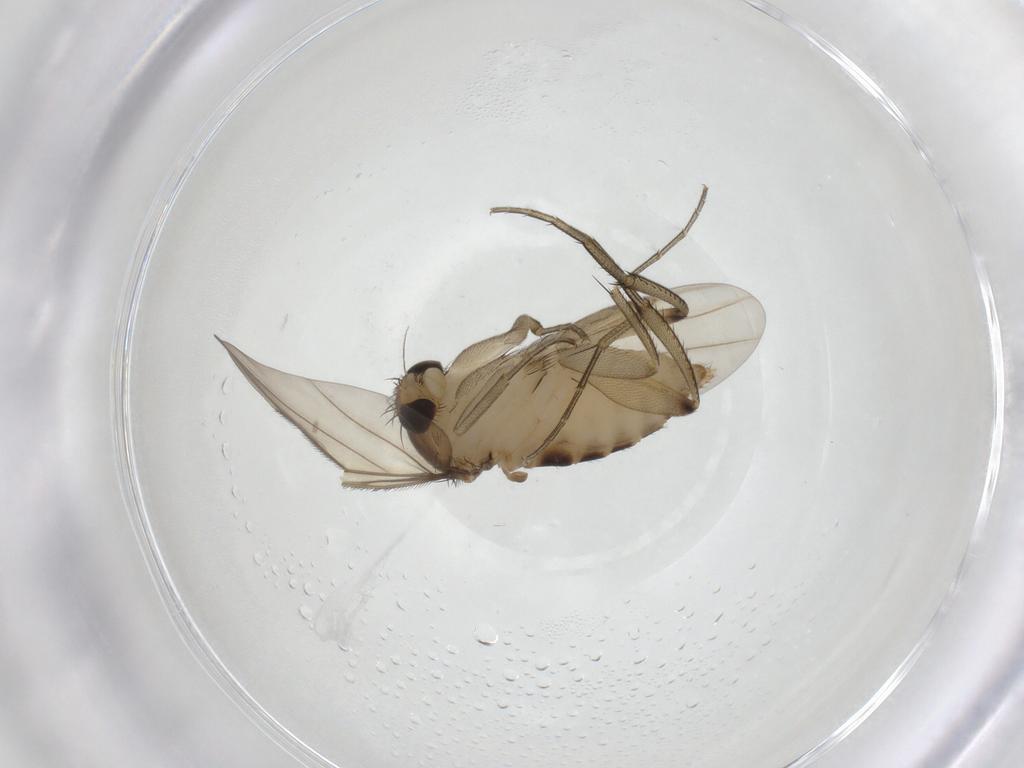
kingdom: Animalia
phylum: Arthropoda
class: Insecta
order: Diptera
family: Phoridae
